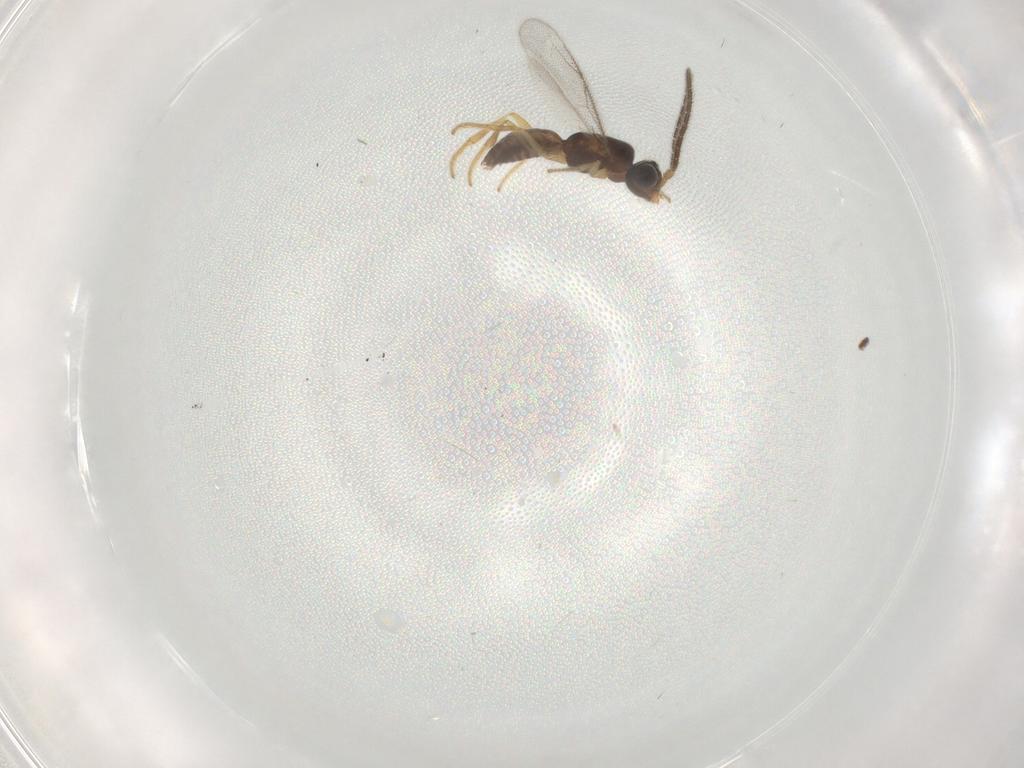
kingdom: Animalia
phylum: Arthropoda
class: Insecta
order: Hymenoptera
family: Dryinidae
